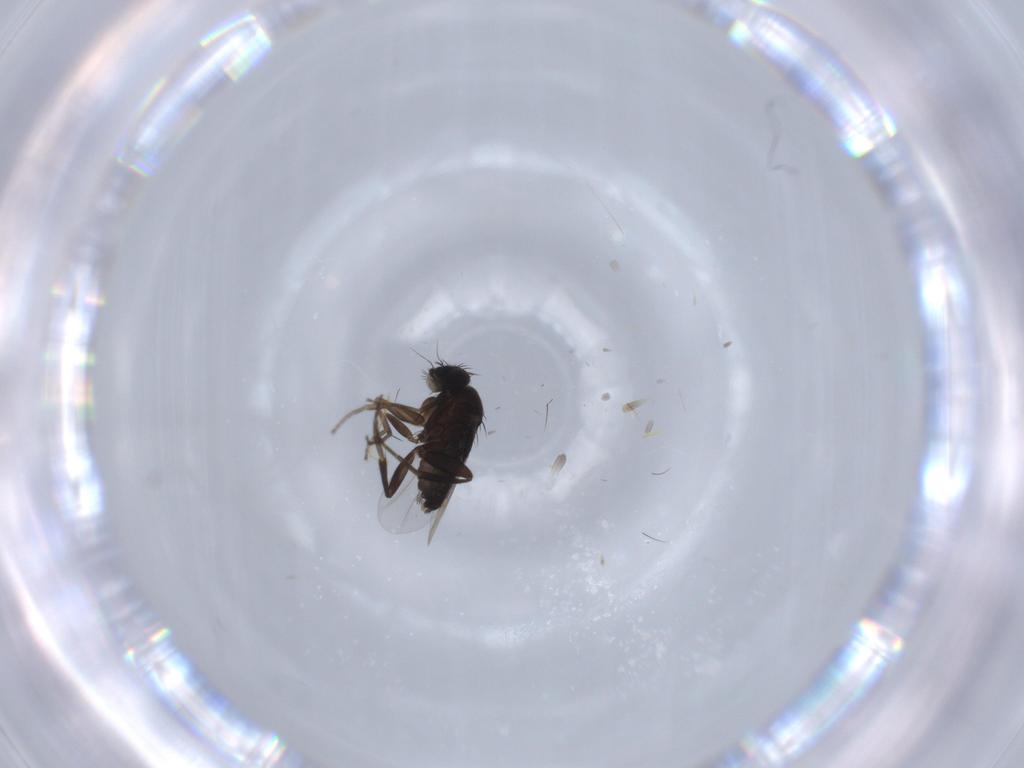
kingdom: Animalia
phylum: Arthropoda
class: Insecta
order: Diptera
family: Phoridae
